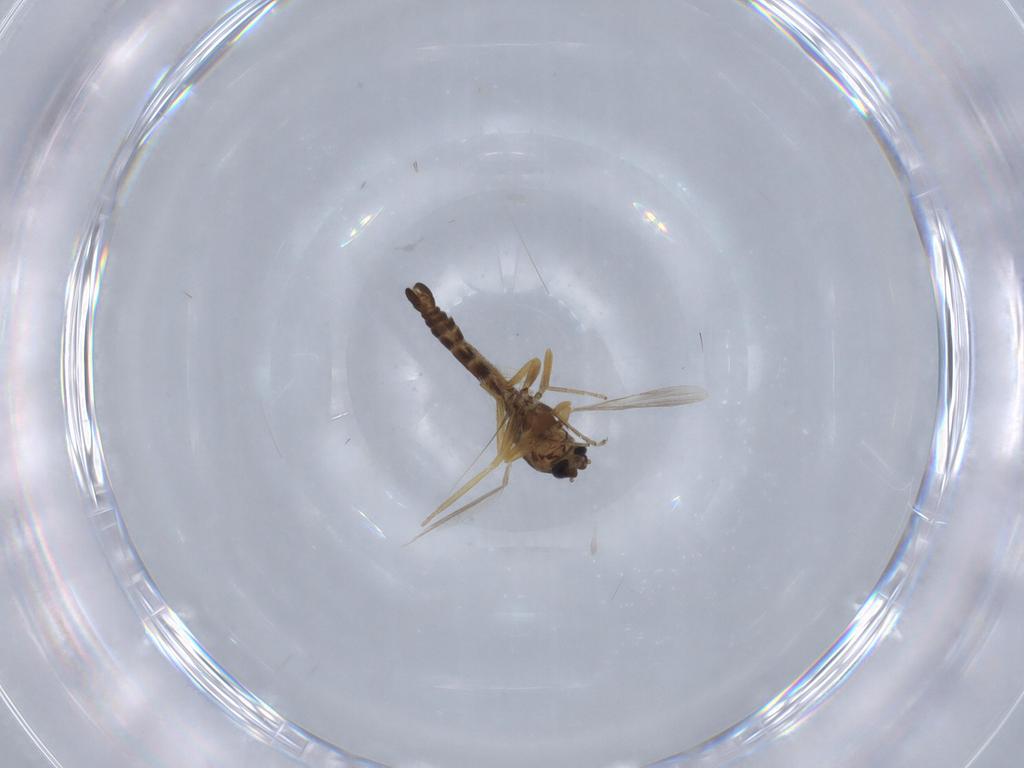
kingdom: Animalia
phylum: Arthropoda
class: Insecta
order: Diptera
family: Ceratopogonidae
